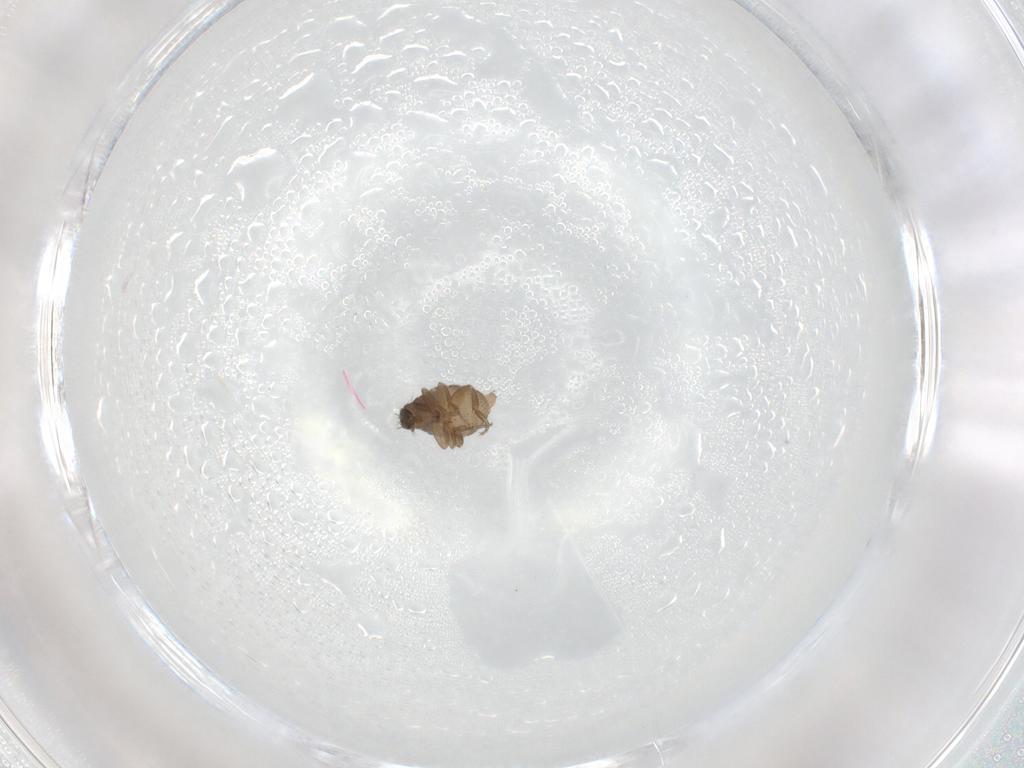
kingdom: Animalia
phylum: Arthropoda
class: Insecta
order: Diptera
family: Phoridae
